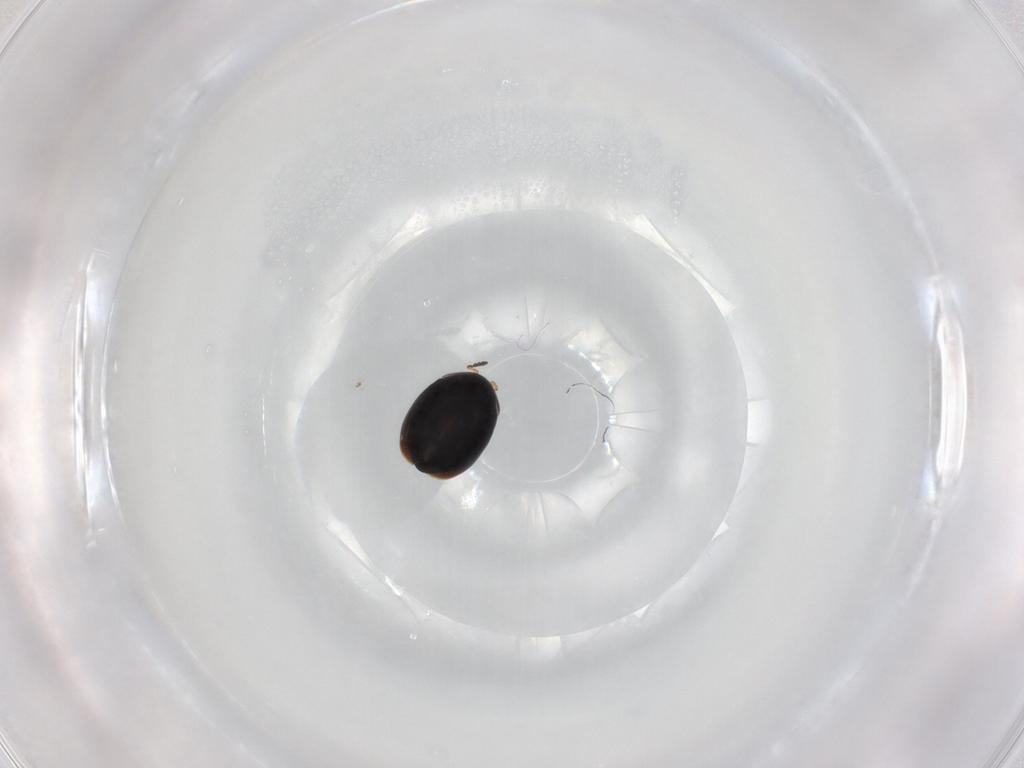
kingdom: Animalia
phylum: Arthropoda
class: Insecta
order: Coleoptera
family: Corylophidae
